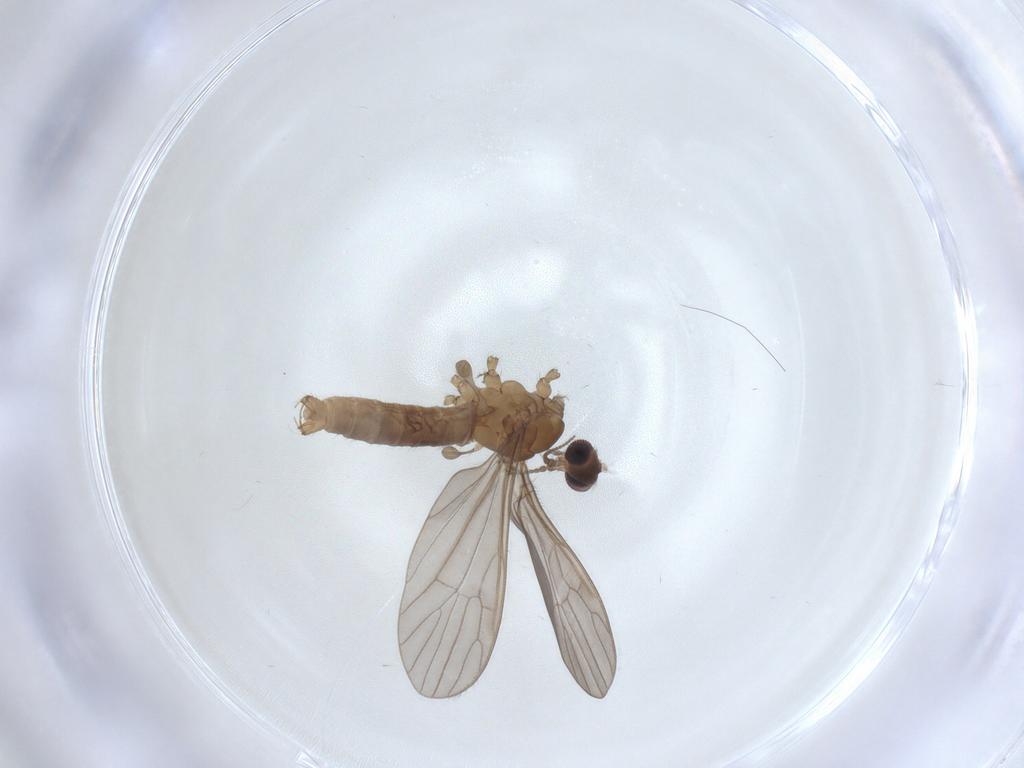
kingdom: Animalia
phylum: Arthropoda
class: Insecta
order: Diptera
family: Limoniidae
